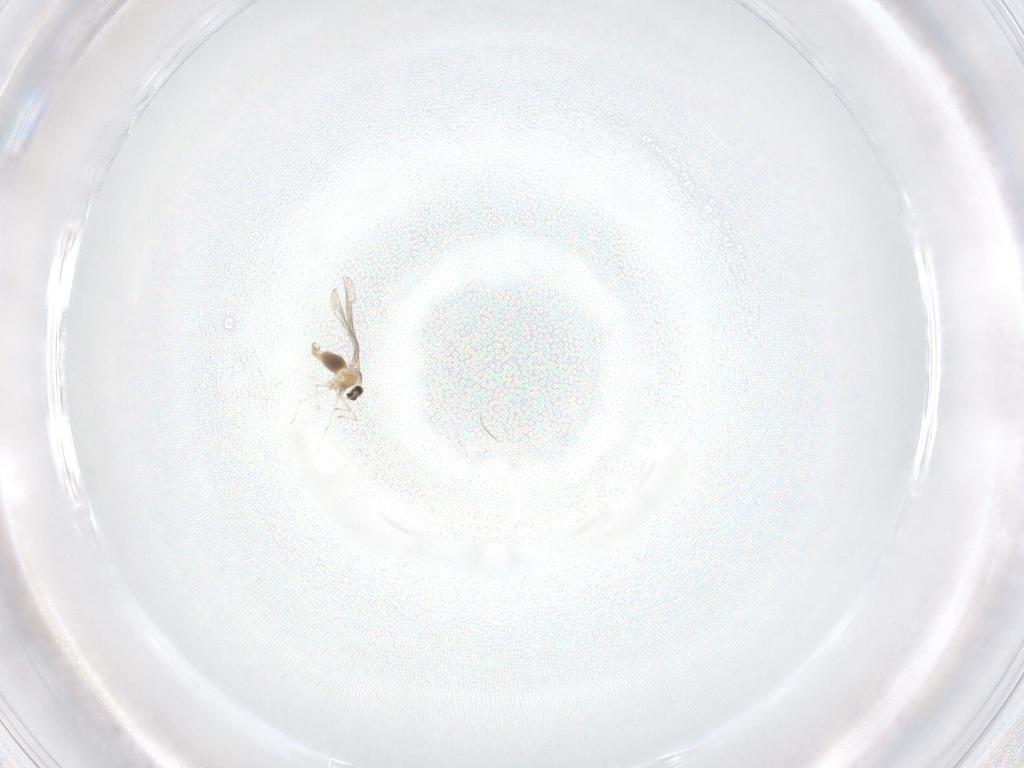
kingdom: Animalia
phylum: Arthropoda
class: Insecta
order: Diptera
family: Cecidomyiidae
